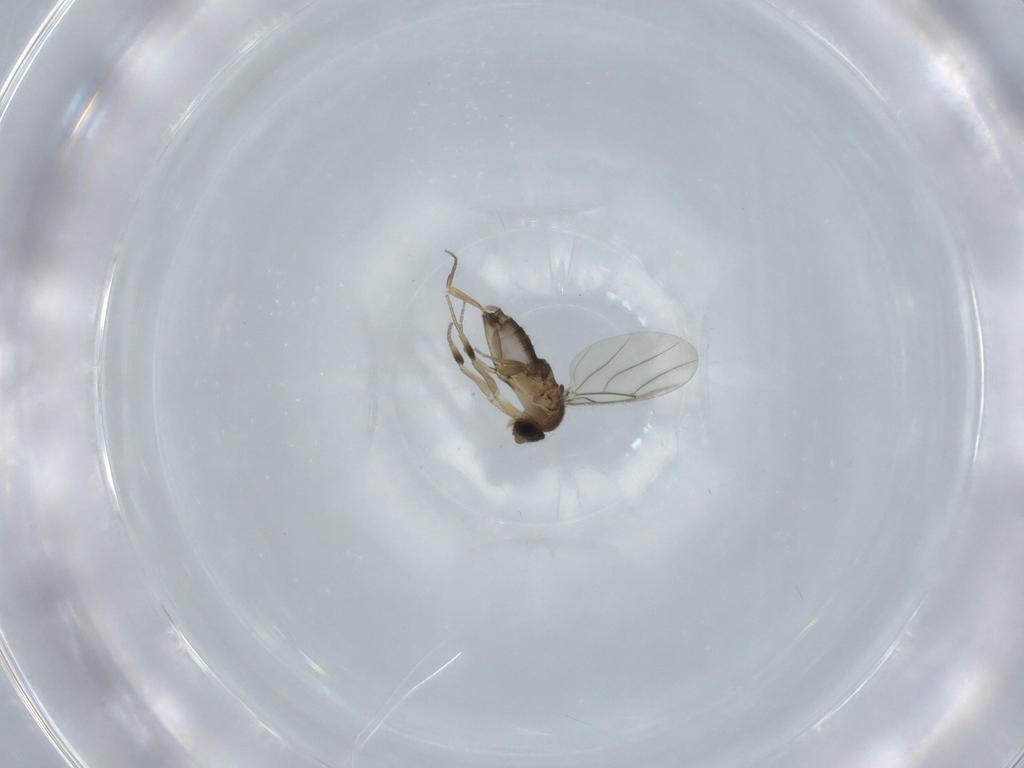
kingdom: Animalia
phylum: Arthropoda
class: Insecta
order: Diptera
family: Phoridae
